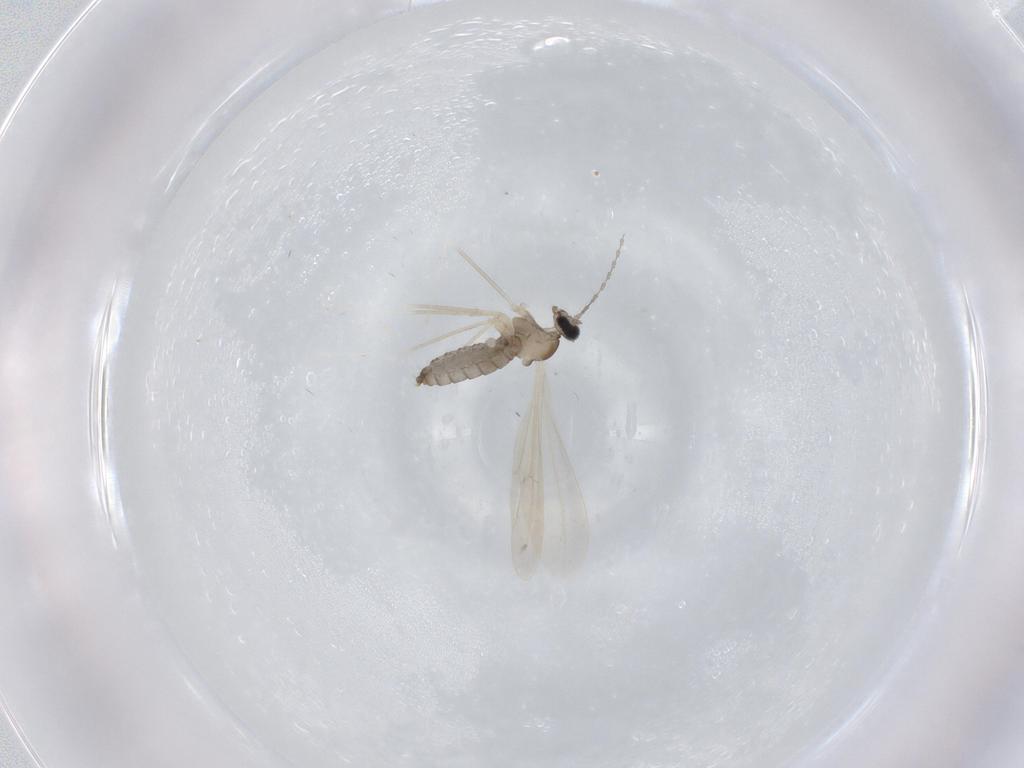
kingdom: Animalia
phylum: Arthropoda
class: Insecta
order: Diptera
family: Cecidomyiidae
